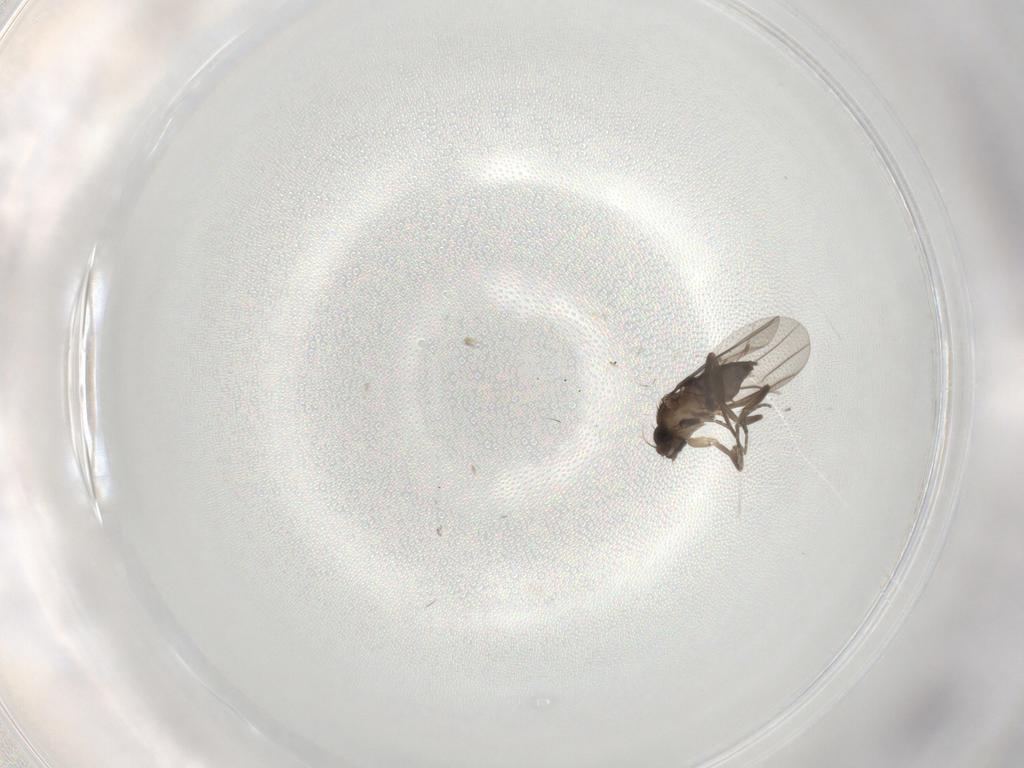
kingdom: Animalia
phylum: Arthropoda
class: Insecta
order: Diptera
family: Phoridae
